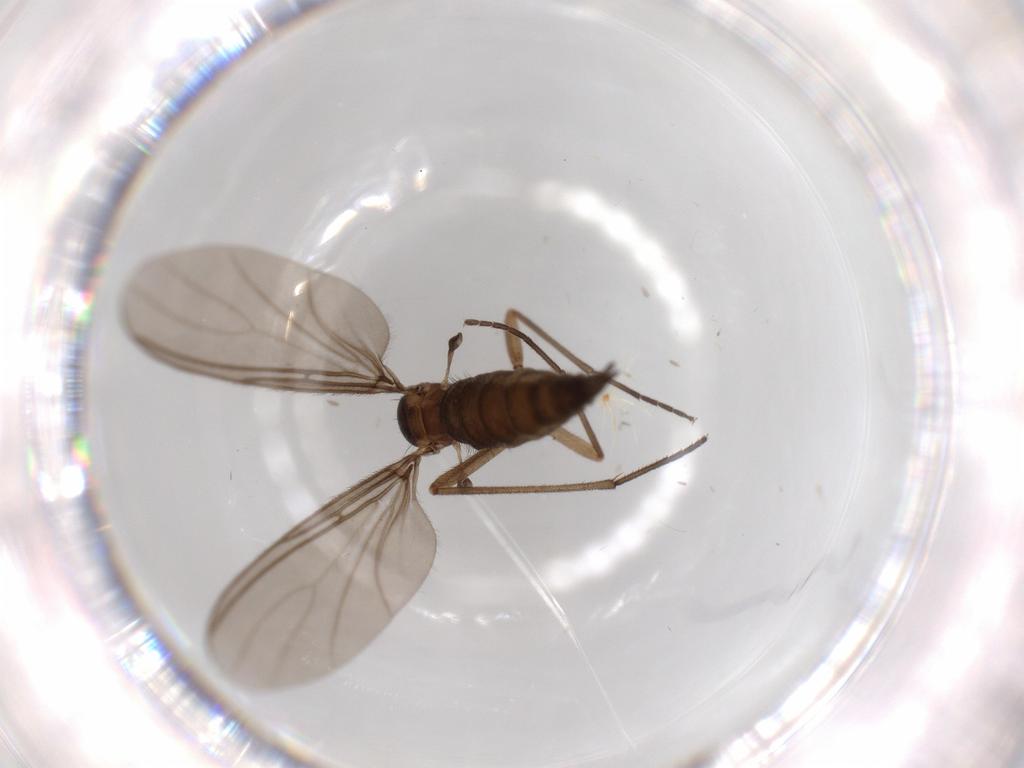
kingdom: Animalia
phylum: Arthropoda
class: Insecta
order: Diptera
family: Sciaridae
